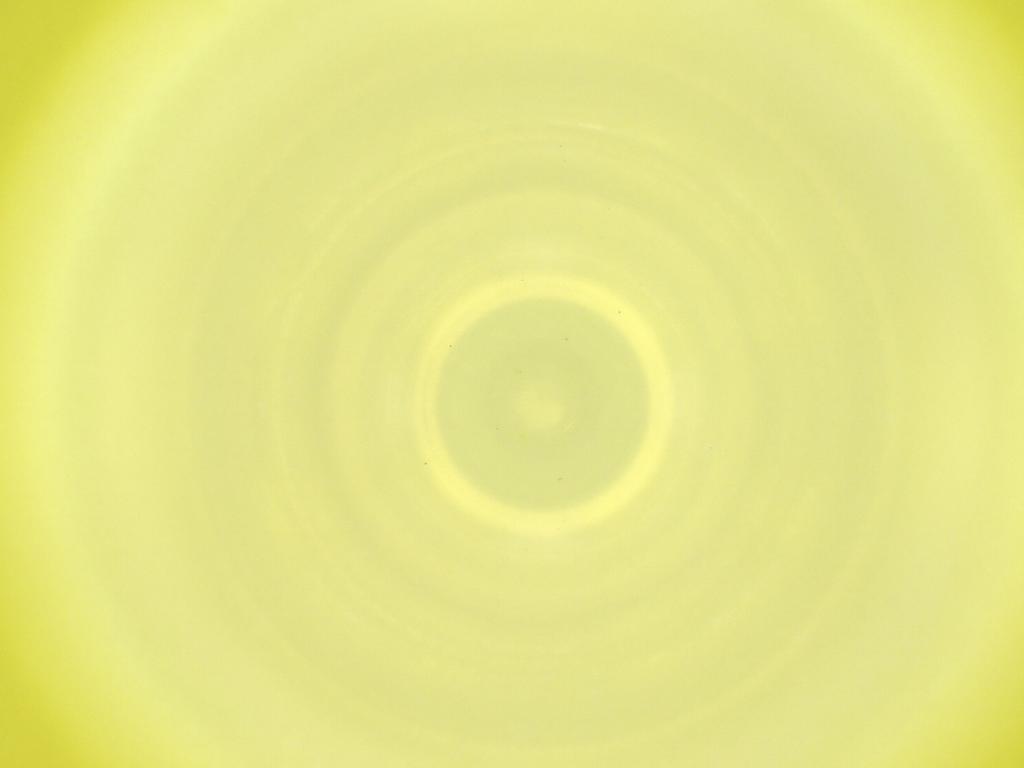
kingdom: Animalia
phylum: Arthropoda
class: Insecta
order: Diptera
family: Cecidomyiidae
